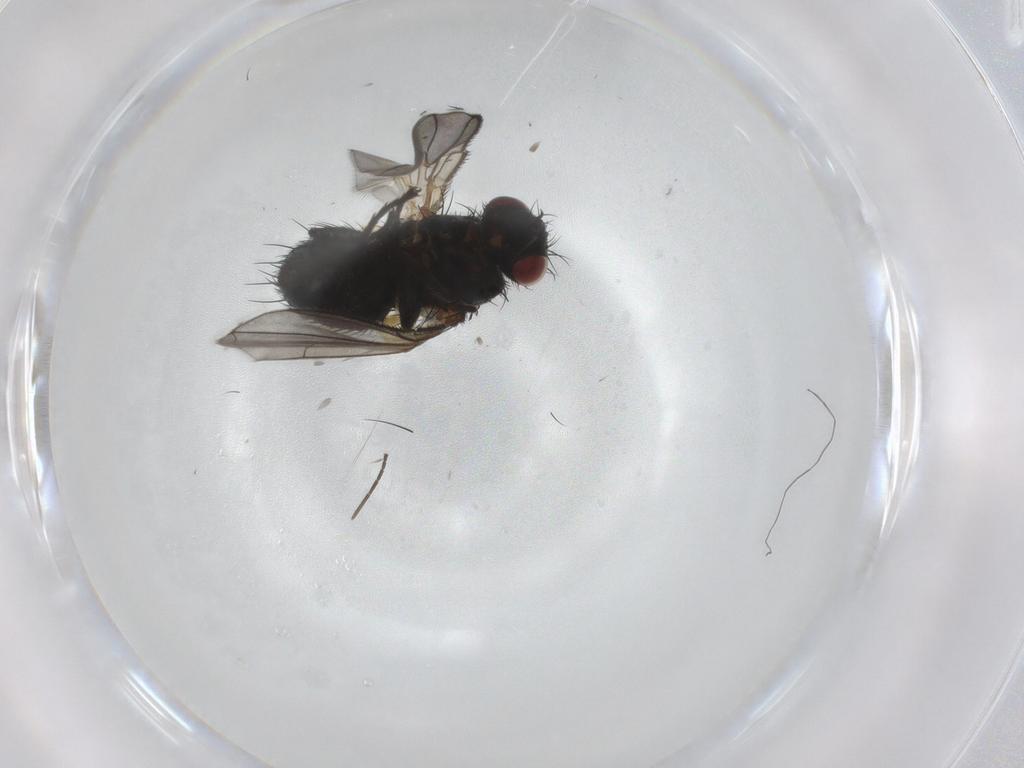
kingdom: Animalia
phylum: Arthropoda
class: Insecta
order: Diptera
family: Tachinidae
